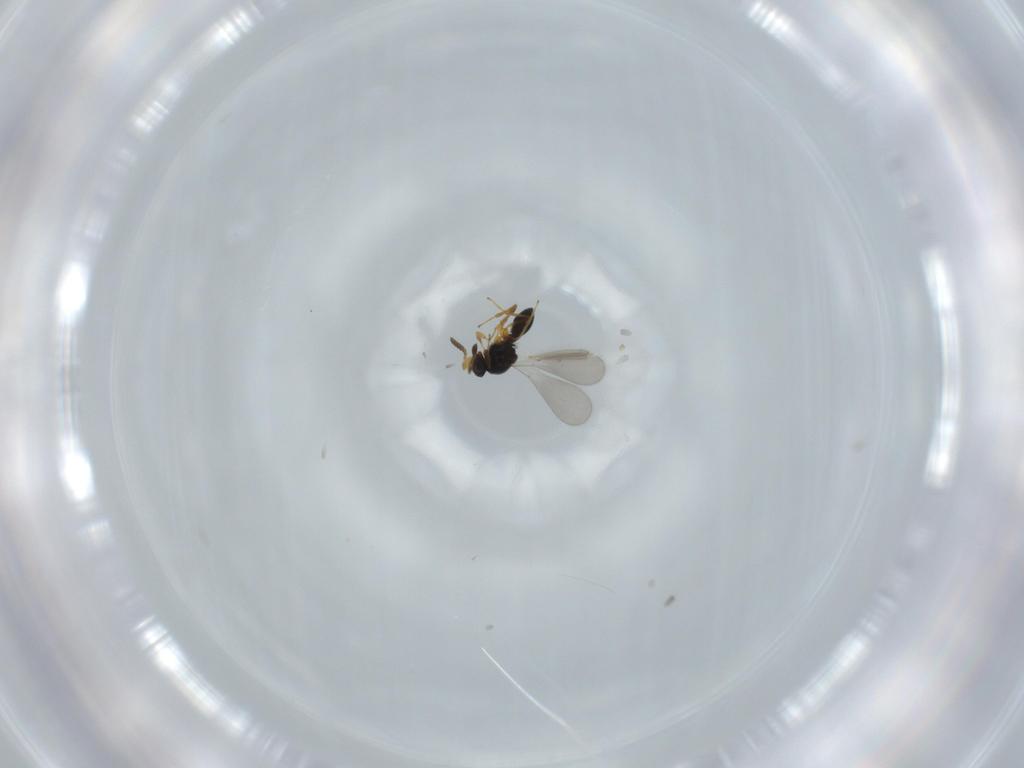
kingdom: Animalia
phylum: Arthropoda
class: Insecta
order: Hymenoptera
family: Platygastridae
